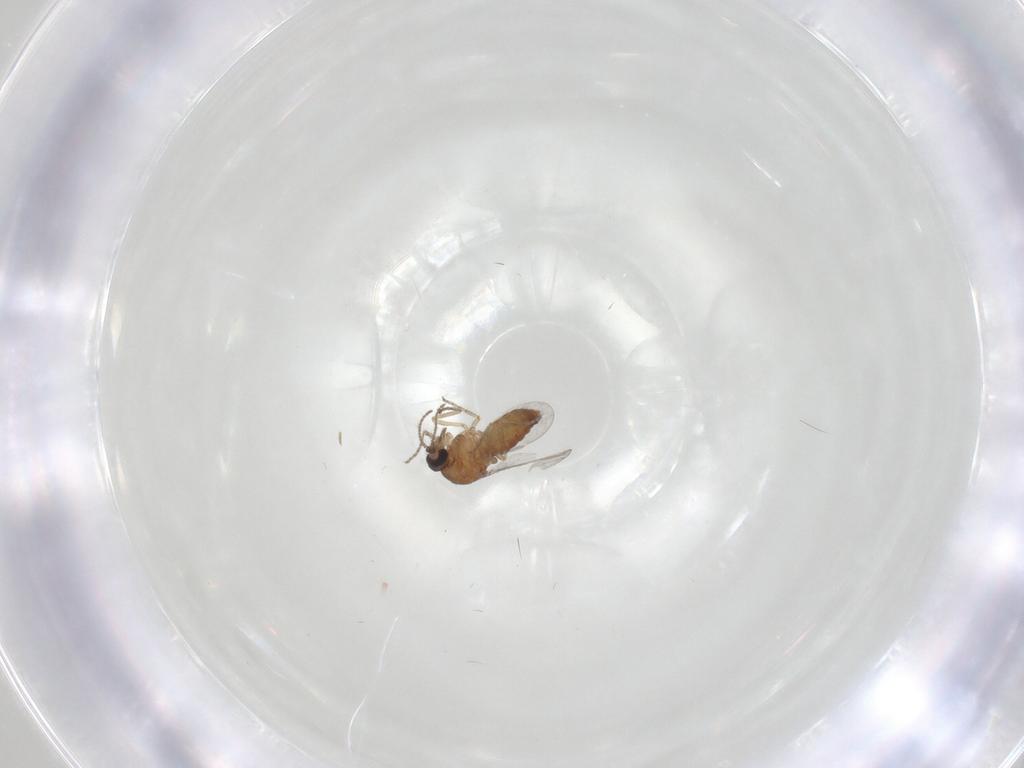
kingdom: Animalia
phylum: Arthropoda
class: Insecta
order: Diptera
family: Ceratopogonidae
